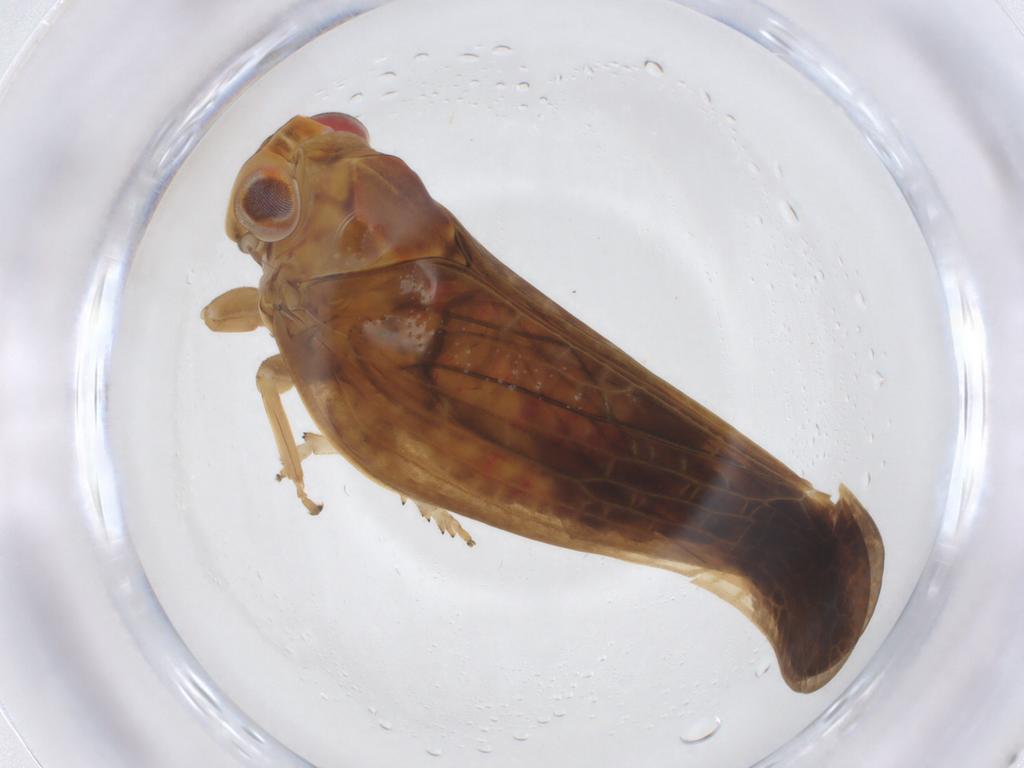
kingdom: Animalia
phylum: Arthropoda
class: Insecta
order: Hemiptera
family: Nogodinidae
